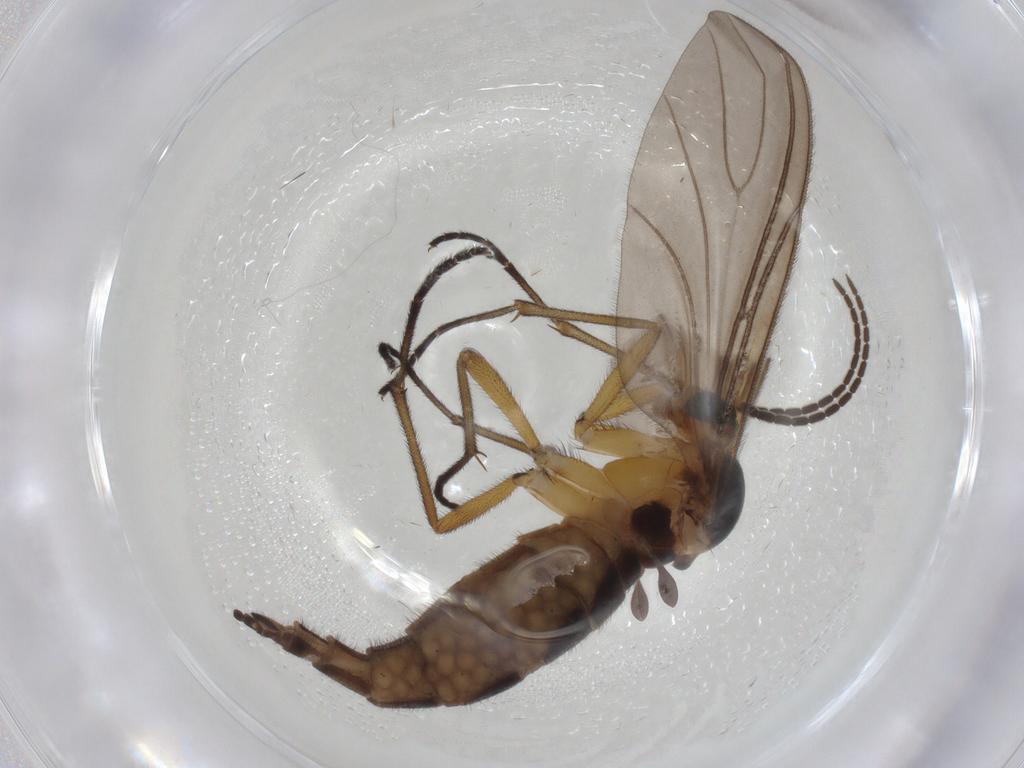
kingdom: Animalia
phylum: Arthropoda
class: Insecta
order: Diptera
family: Sciaridae
